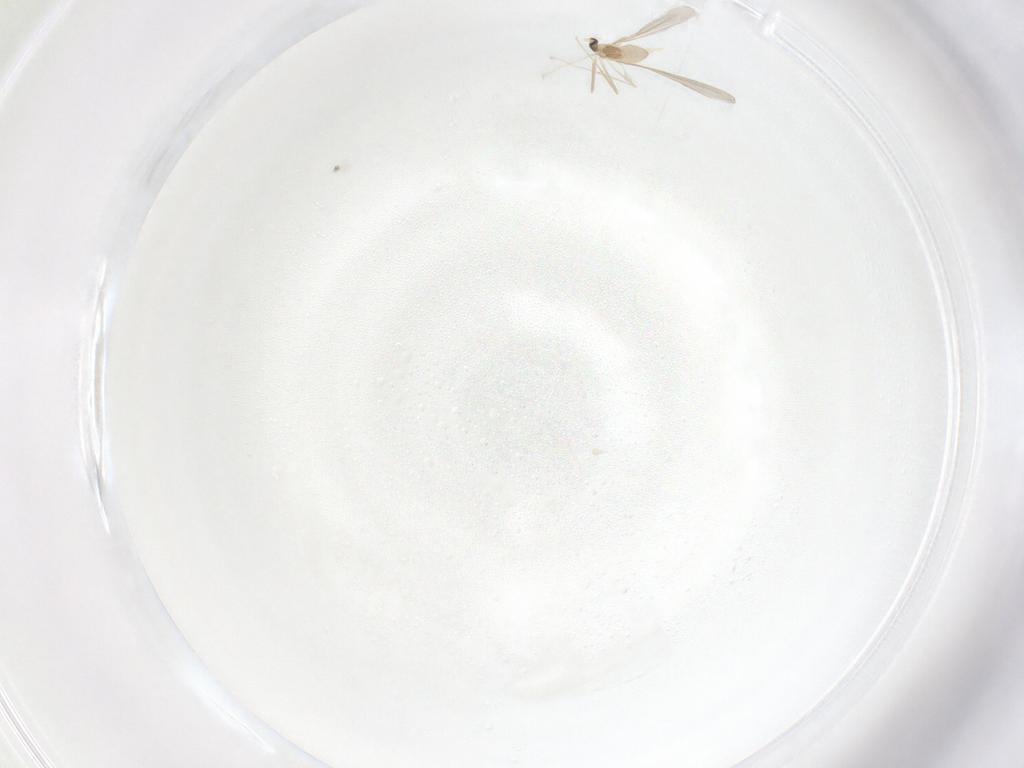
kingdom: Animalia
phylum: Arthropoda
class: Insecta
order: Diptera
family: Cecidomyiidae
